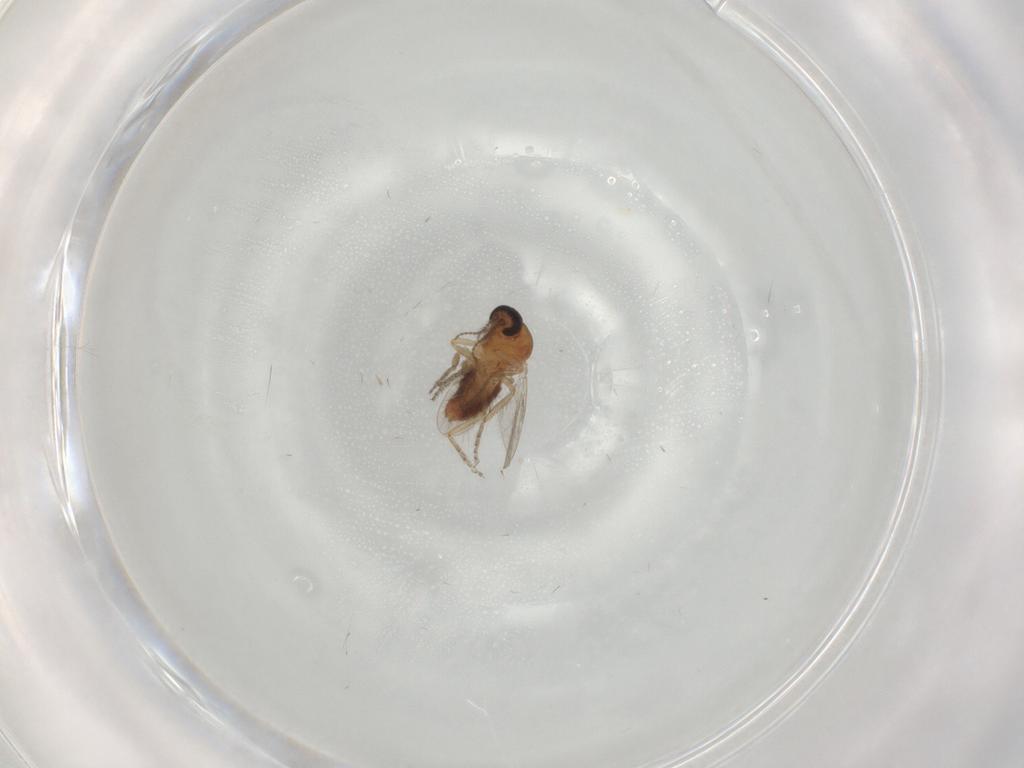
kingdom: Animalia
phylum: Arthropoda
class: Insecta
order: Diptera
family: Ceratopogonidae
